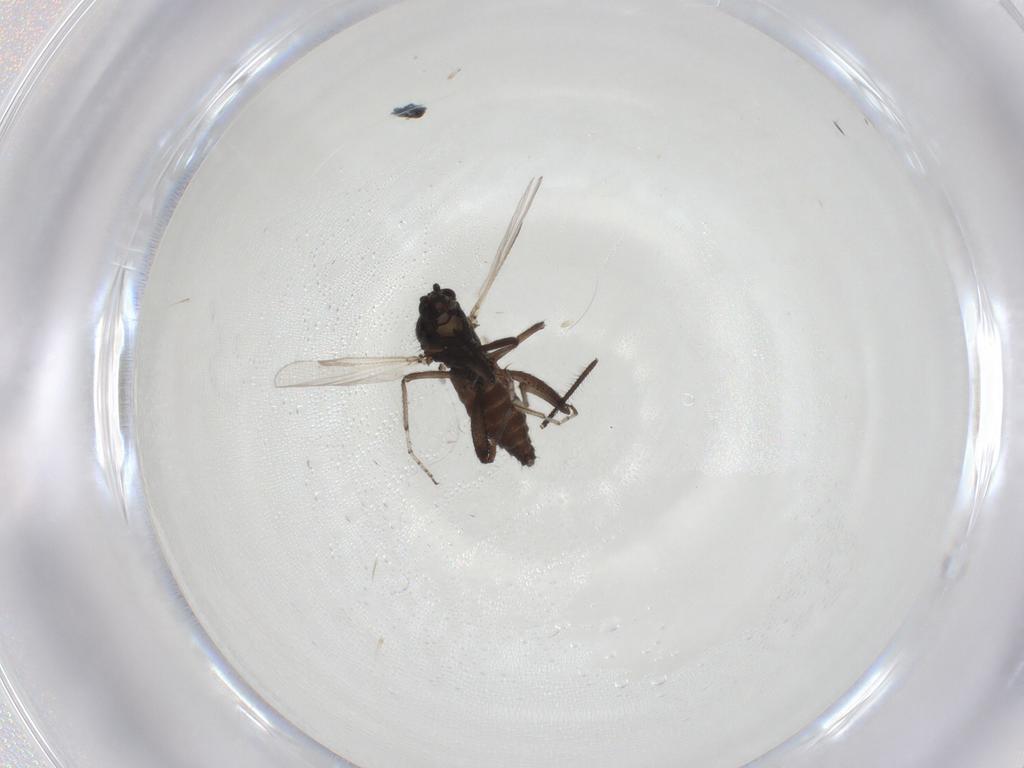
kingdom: Animalia
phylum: Arthropoda
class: Insecta
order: Diptera
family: Ceratopogonidae
